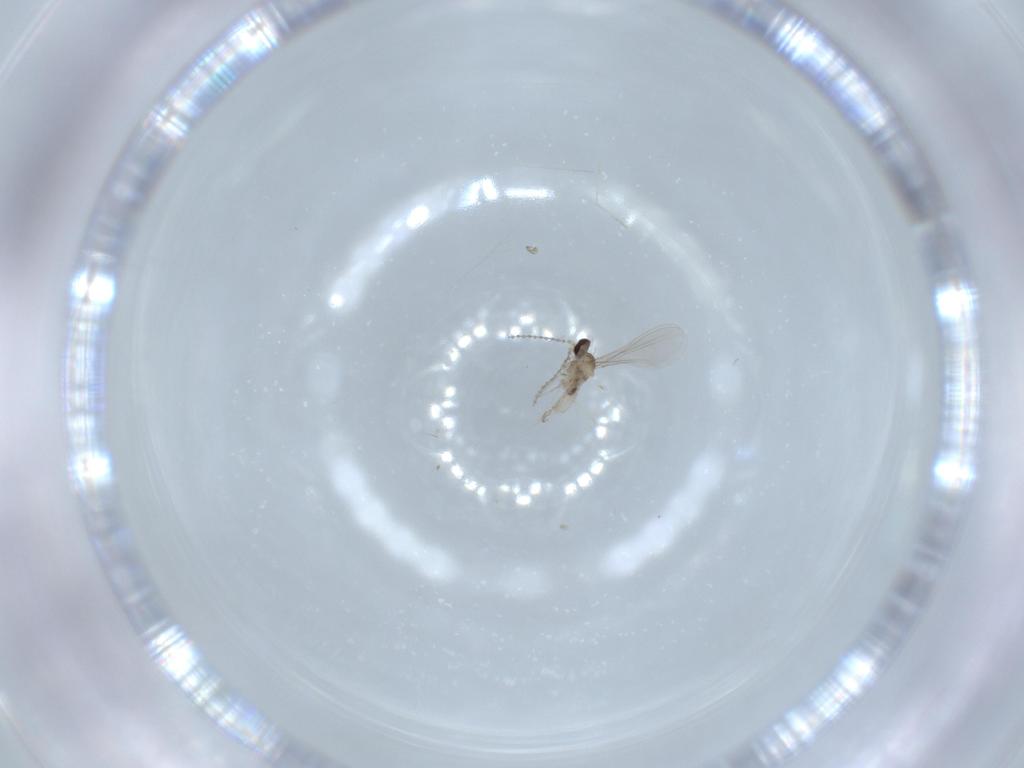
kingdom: Animalia
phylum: Arthropoda
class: Insecta
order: Diptera
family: Cecidomyiidae
